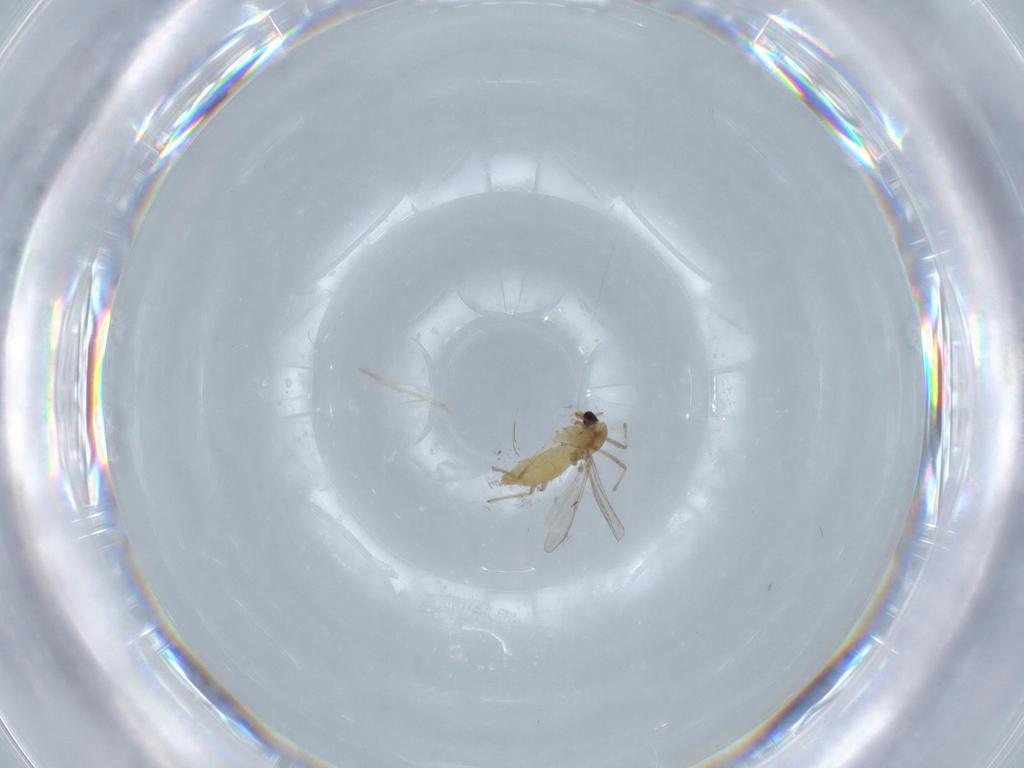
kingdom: Animalia
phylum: Arthropoda
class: Insecta
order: Diptera
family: Chironomidae
